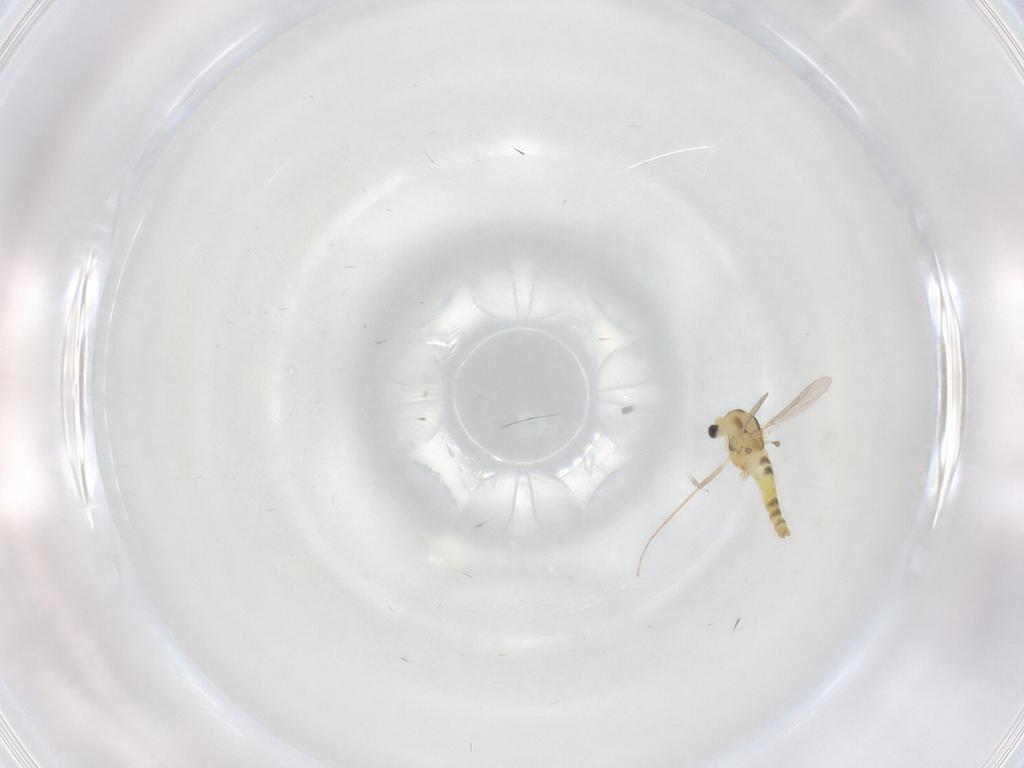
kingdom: Animalia
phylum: Arthropoda
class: Insecta
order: Diptera
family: Chironomidae
